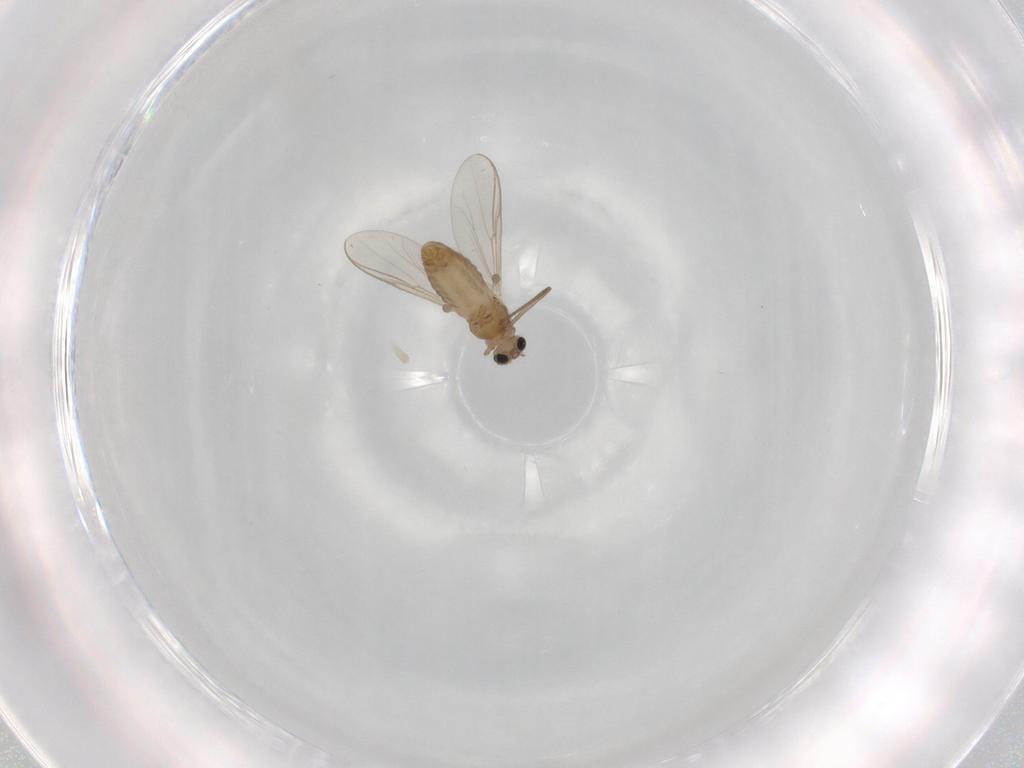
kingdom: Animalia
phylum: Arthropoda
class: Insecta
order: Diptera
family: Chironomidae
